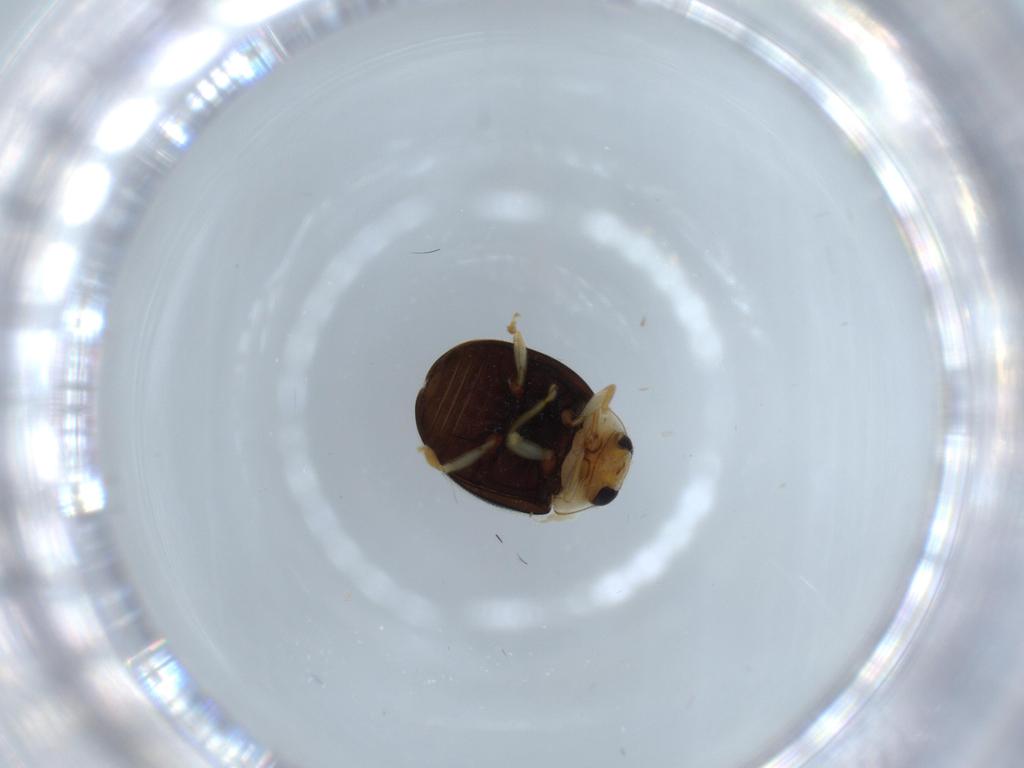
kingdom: Animalia
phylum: Arthropoda
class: Insecta
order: Coleoptera
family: Coccinellidae
